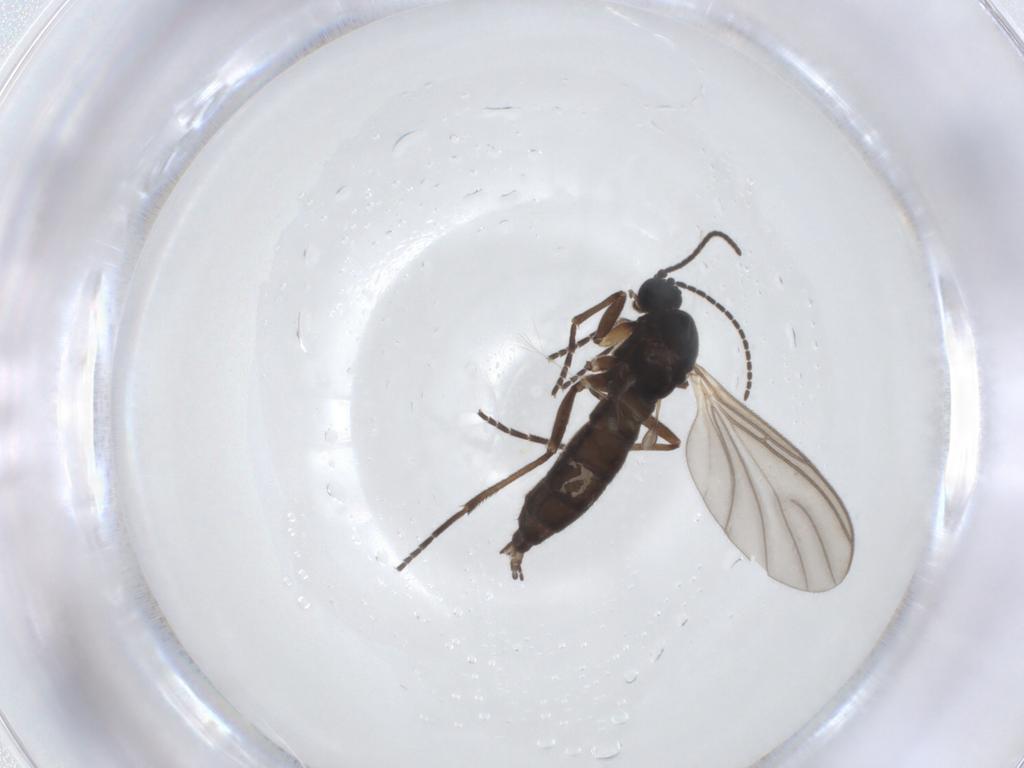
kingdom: Animalia
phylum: Arthropoda
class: Insecta
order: Diptera
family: Sciaridae
